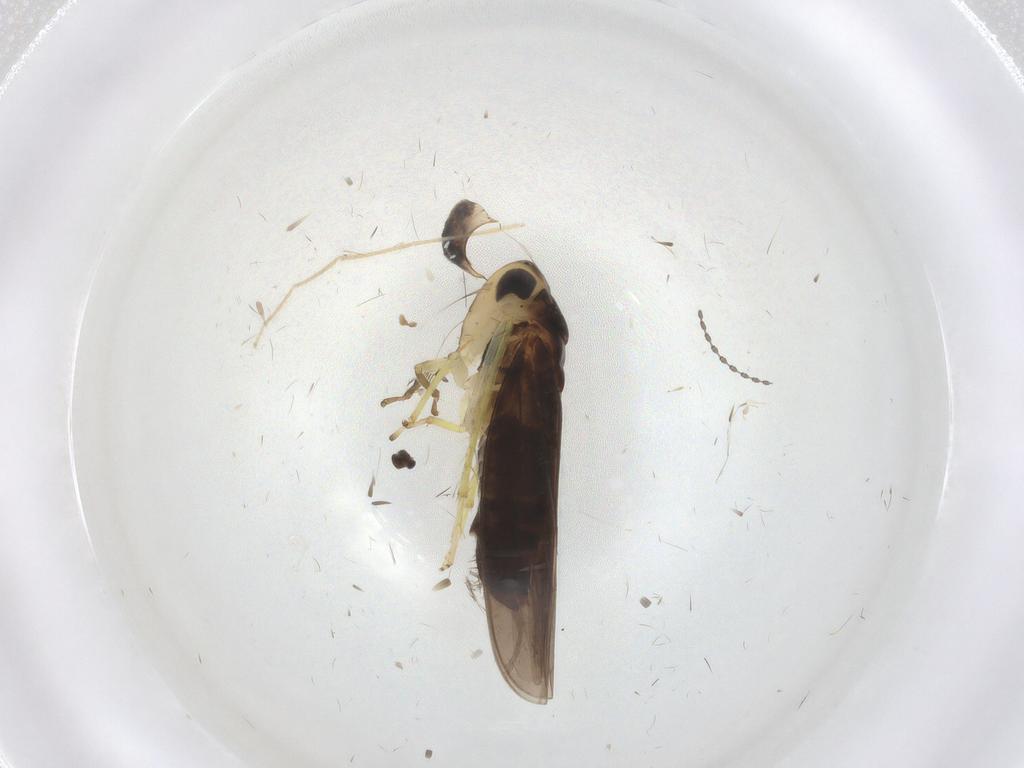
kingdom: Animalia
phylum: Arthropoda
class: Insecta
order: Hemiptera
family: Cicadellidae
